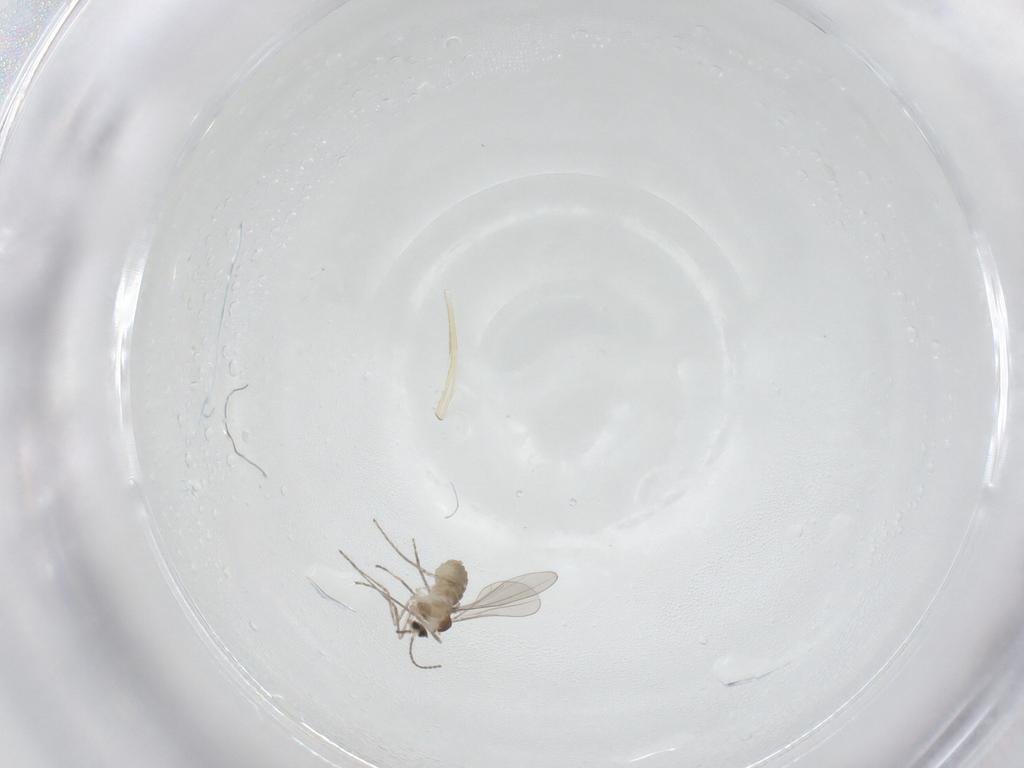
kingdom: Animalia
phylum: Arthropoda
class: Insecta
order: Diptera
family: Cecidomyiidae
